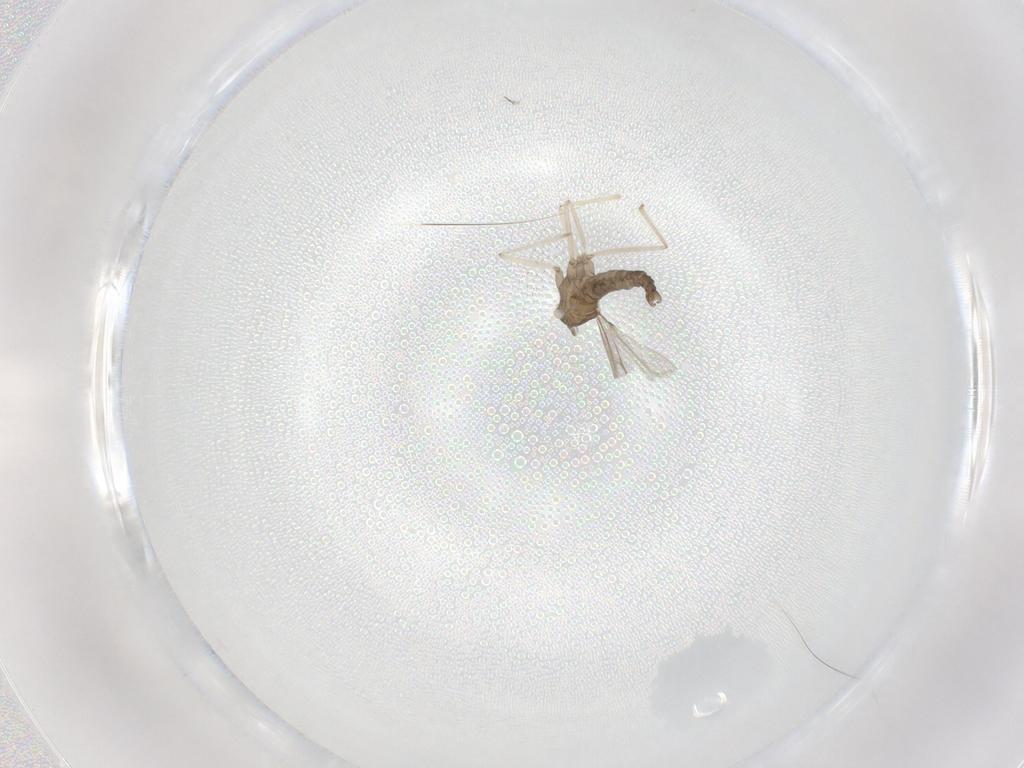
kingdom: Animalia
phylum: Arthropoda
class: Insecta
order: Diptera
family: Cecidomyiidae
